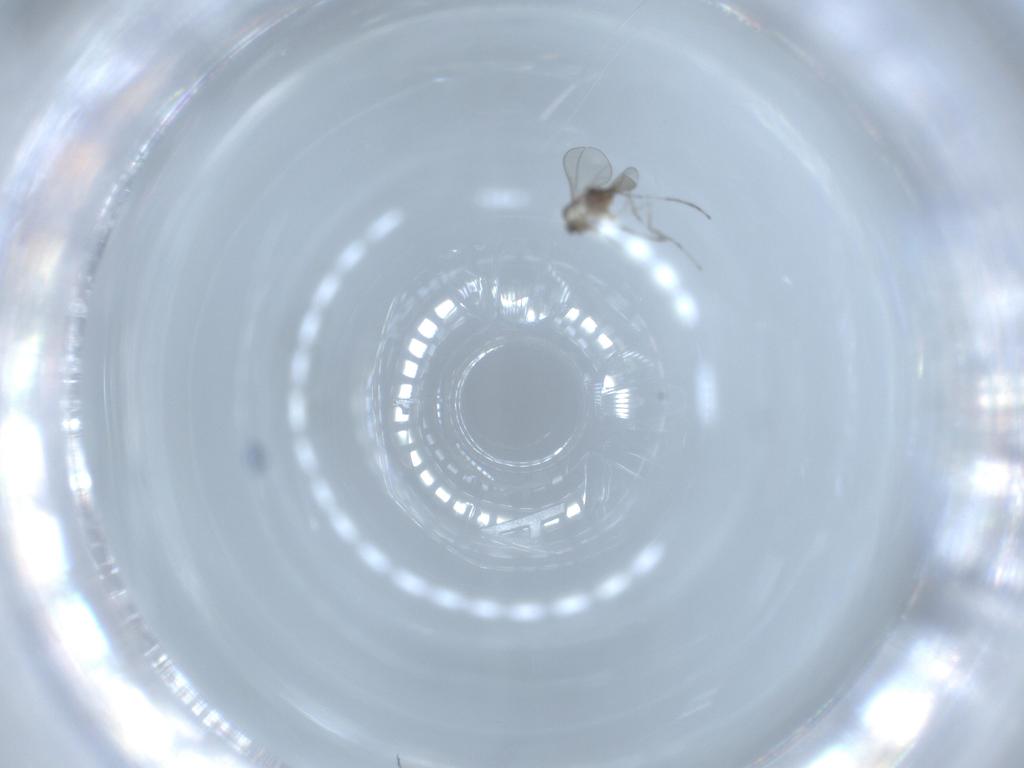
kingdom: Animalia
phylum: Arthropoda
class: Insecta
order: Diptera
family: Cecidomyiidae
